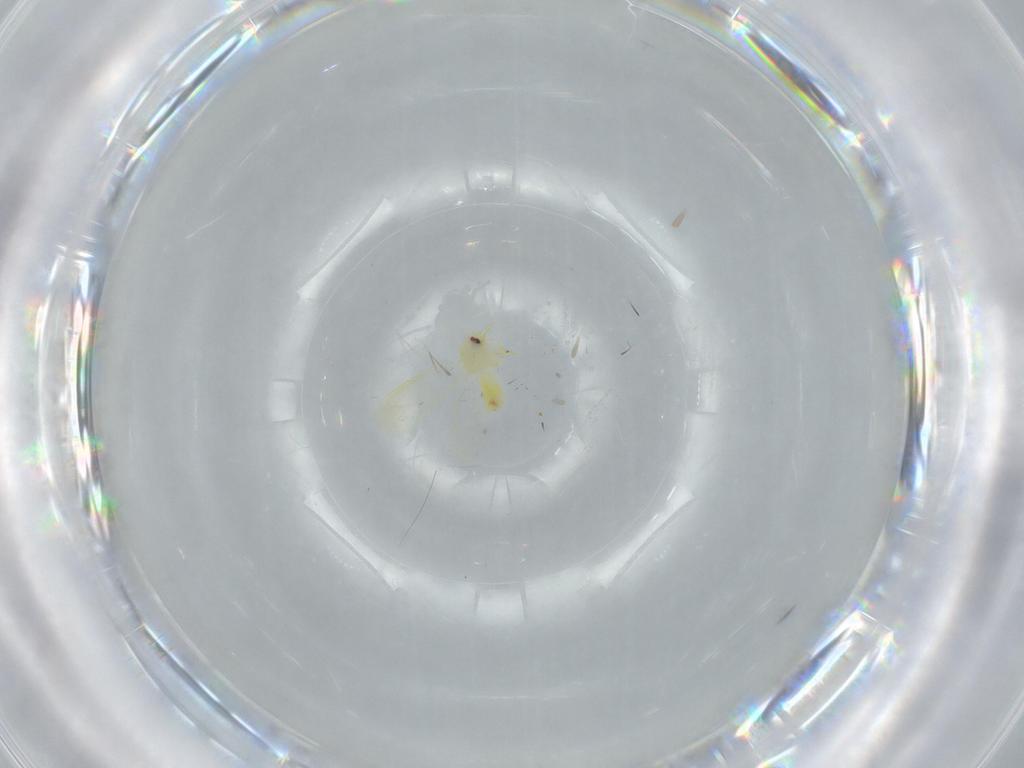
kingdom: Animalia
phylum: Arthropoda
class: Insecta
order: Hemiptera
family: Aleyrodidae
